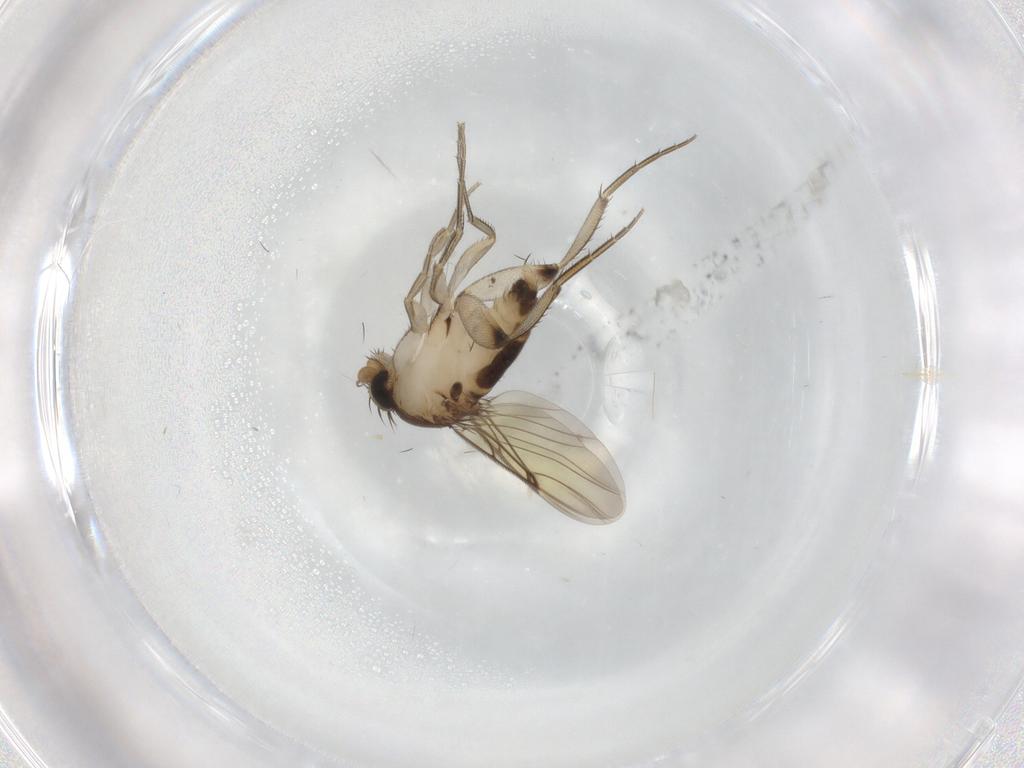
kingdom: Animalia
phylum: Arthropoda
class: Insecta
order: Diptera
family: Phoridae
